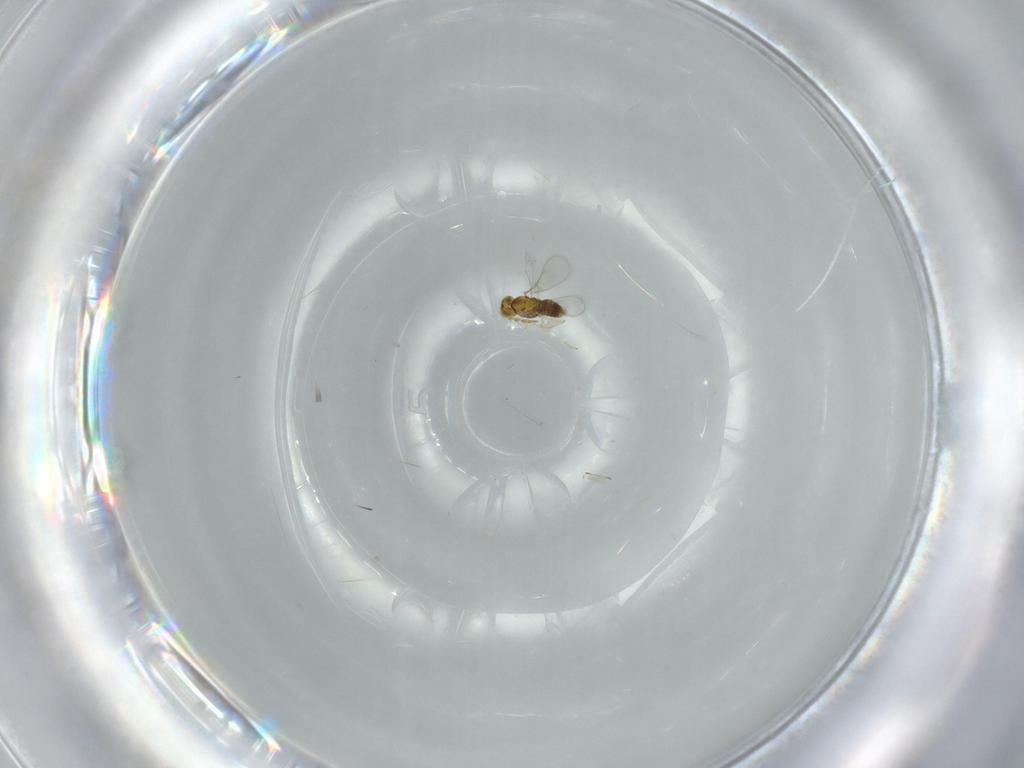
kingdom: Animalia
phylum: Arthropoda
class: Insecta
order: Hymenoptera
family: Aphelinidae
